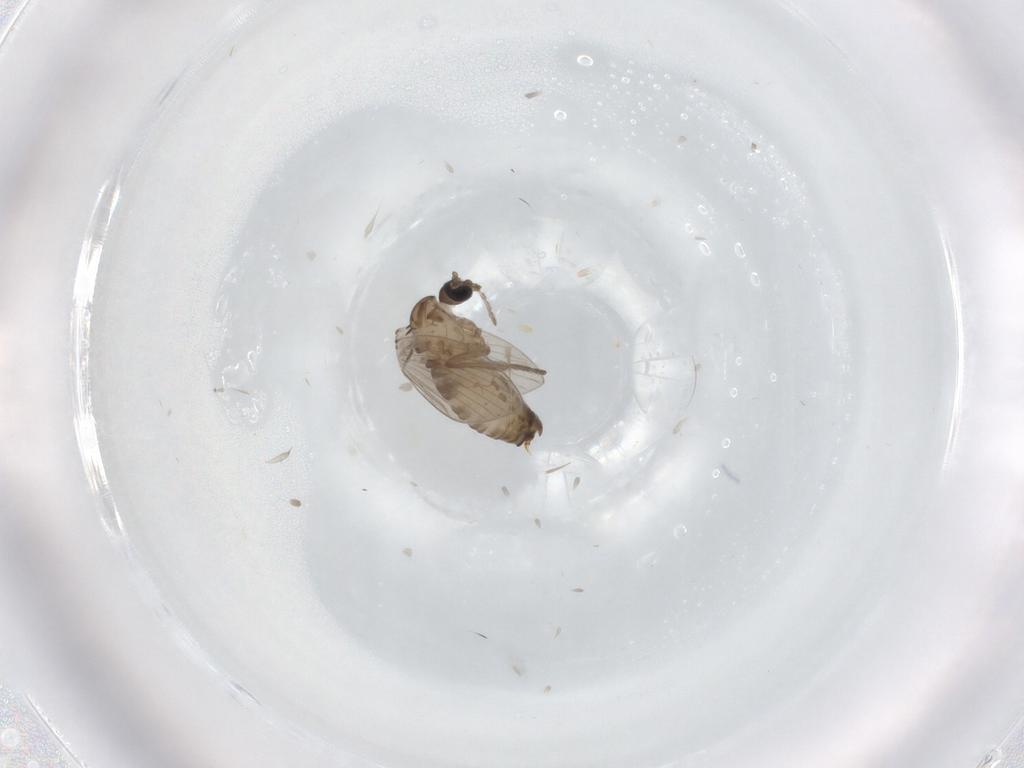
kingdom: Animalia
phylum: Arthropoda
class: Insecta
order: Diptera
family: Psychodidae
